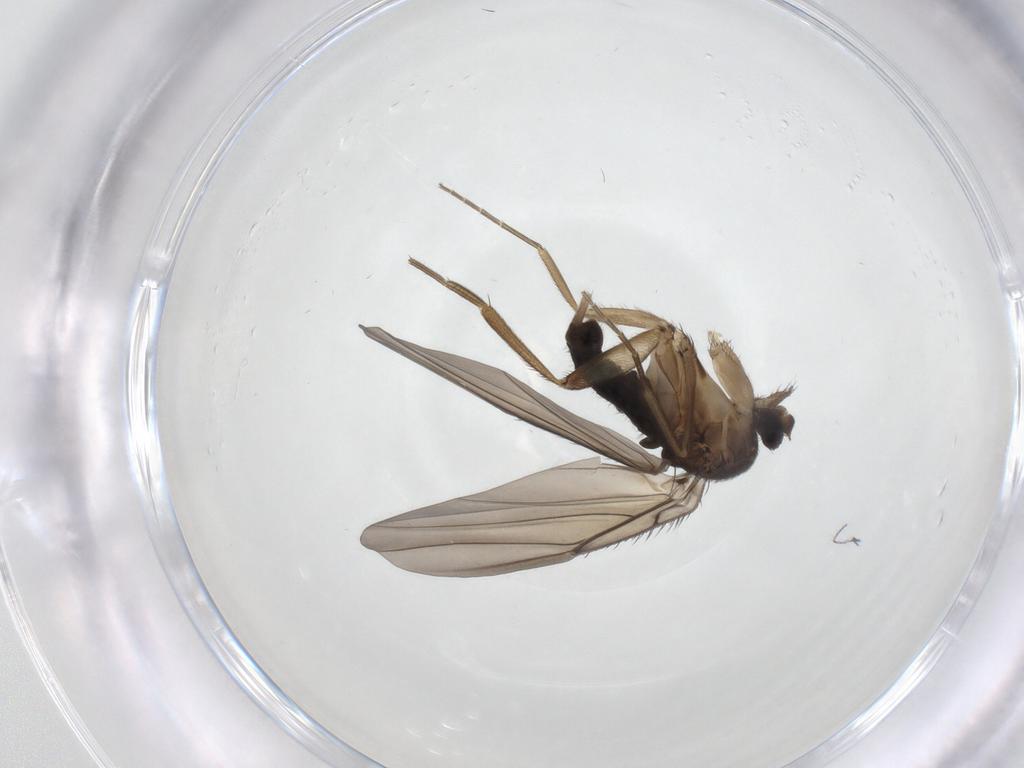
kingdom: Animalia
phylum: Arthropoda
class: Insecta
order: Diptera
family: Phoridae
